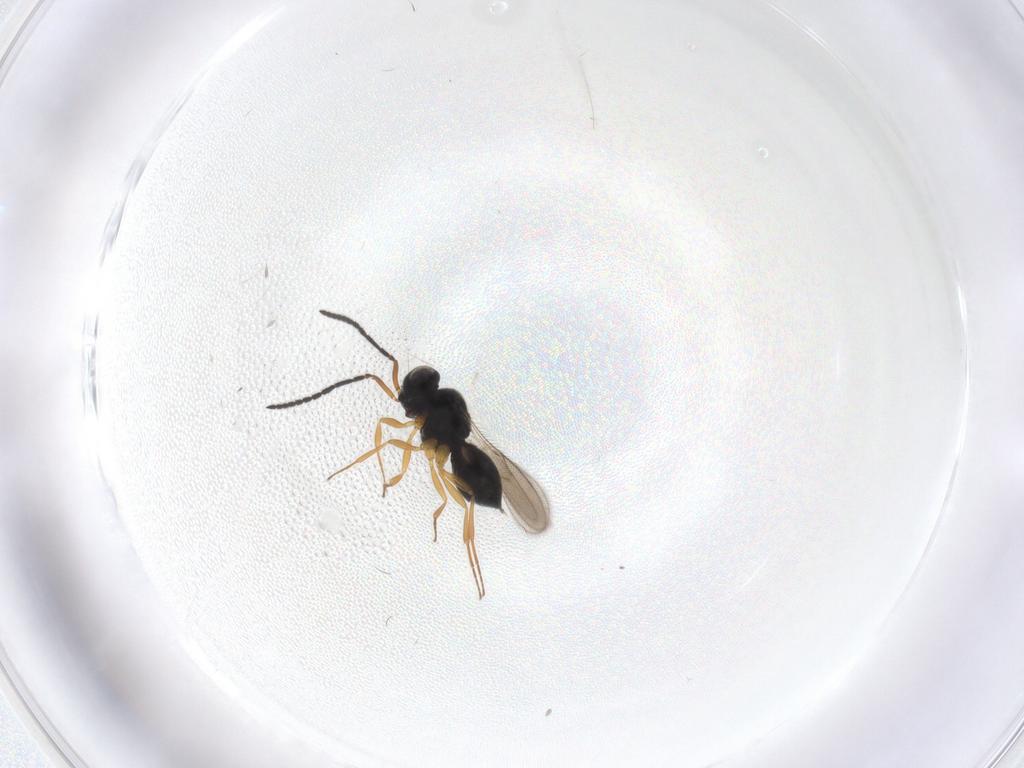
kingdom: Animalia
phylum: Arthropoda
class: Insecta
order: Hymenoptera
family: Scelionidae
